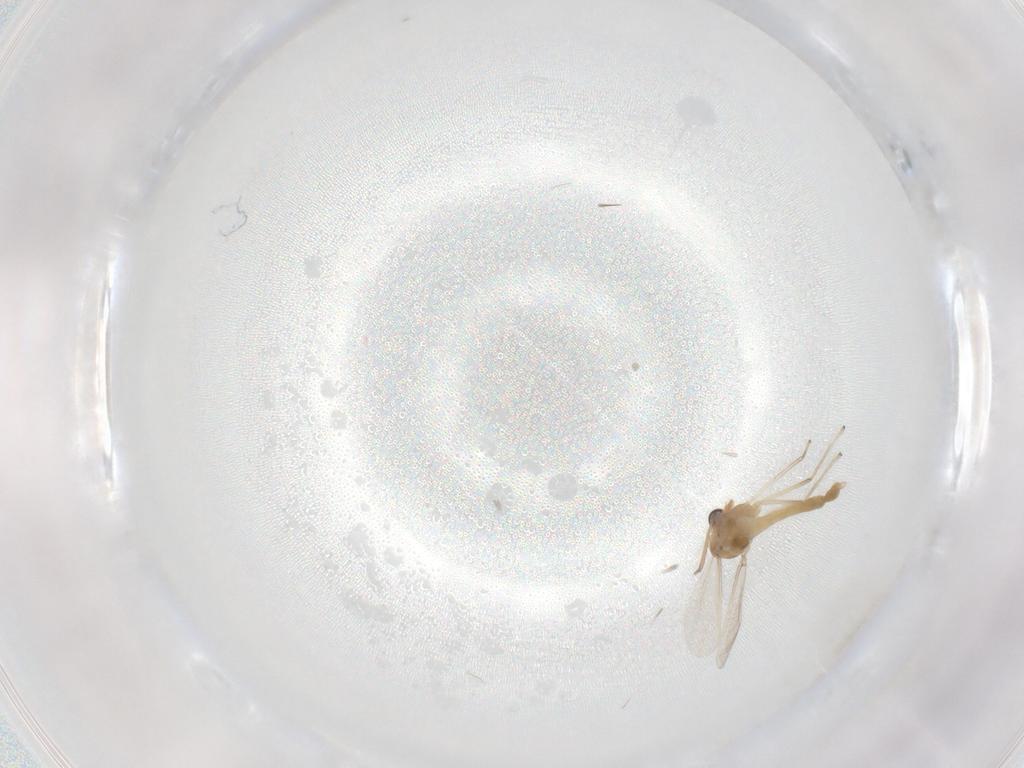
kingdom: Animalia
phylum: Arthropoda
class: Insecta
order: Diptera
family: Chironomidae
